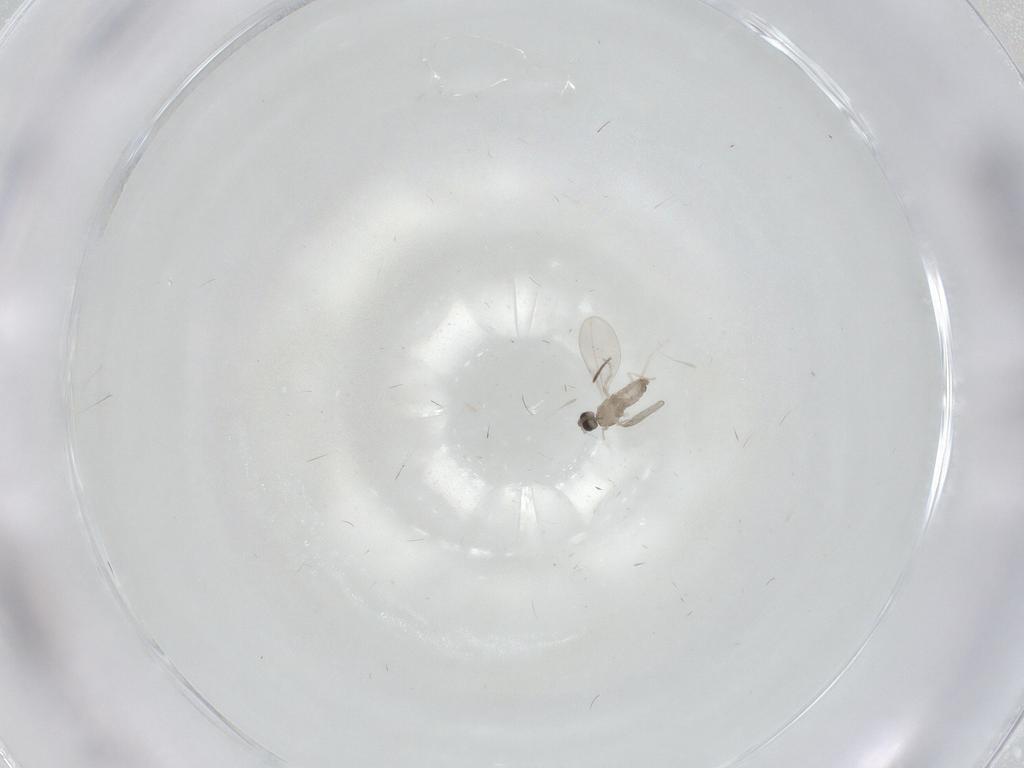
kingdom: Animalia
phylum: Arthropoda
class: Insecta
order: Diptera
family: Cecidomyiidae
